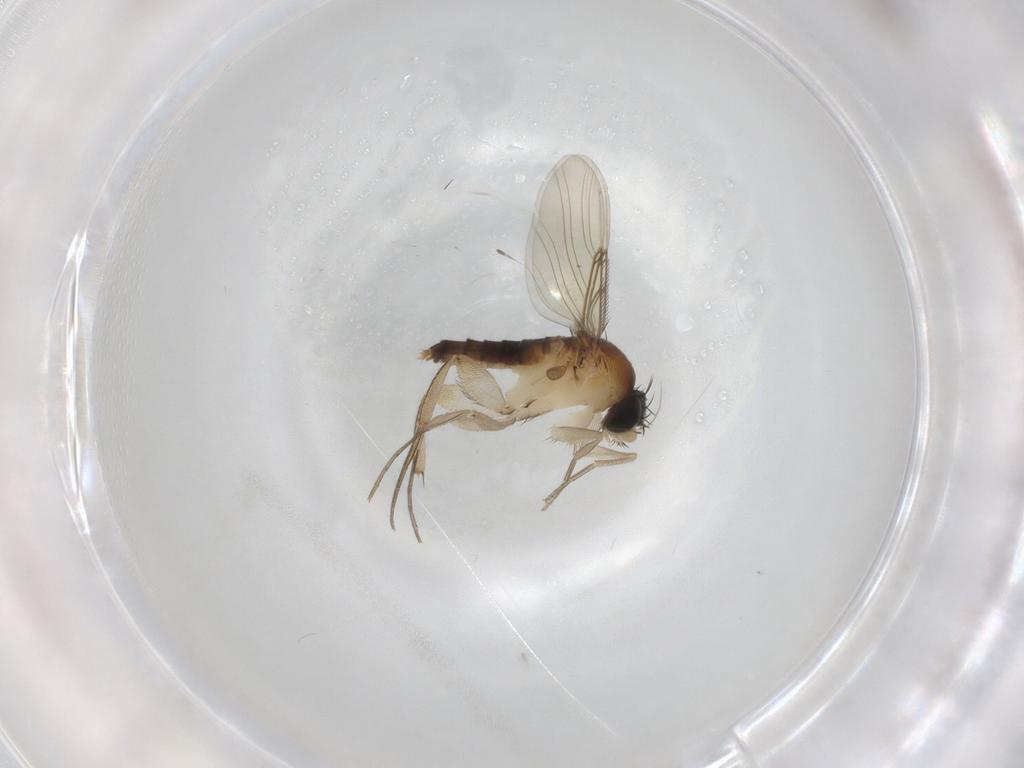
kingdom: Animalia
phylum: Arthropoda
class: Insecta
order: Diptera
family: Phoridae
